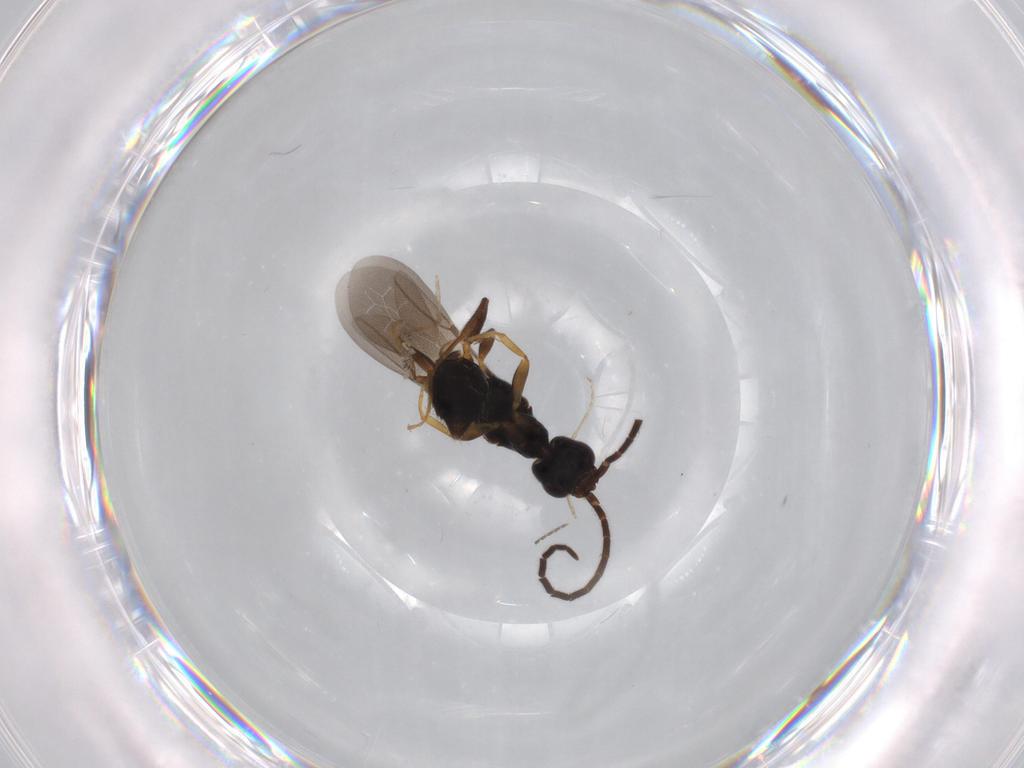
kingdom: Animalia
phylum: Arthropoda
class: Insecta
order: Hymenoptera
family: Bethylidae
